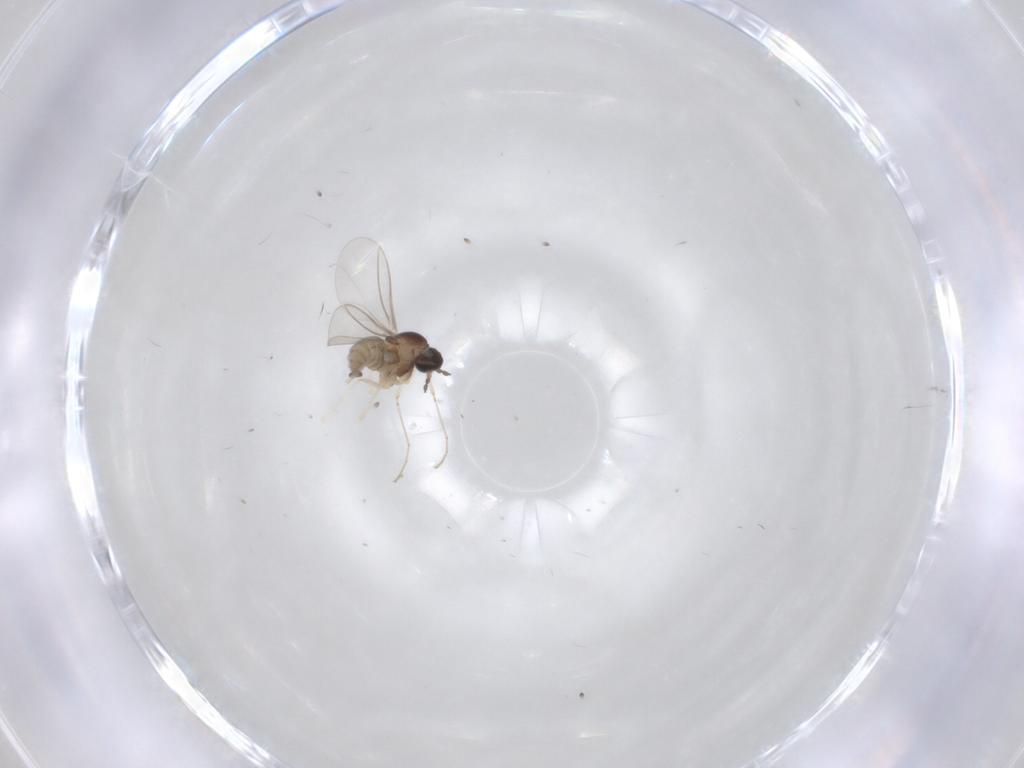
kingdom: Animalia
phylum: Arthropoda
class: Insecta
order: Diptera
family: Cecidomyiidae
